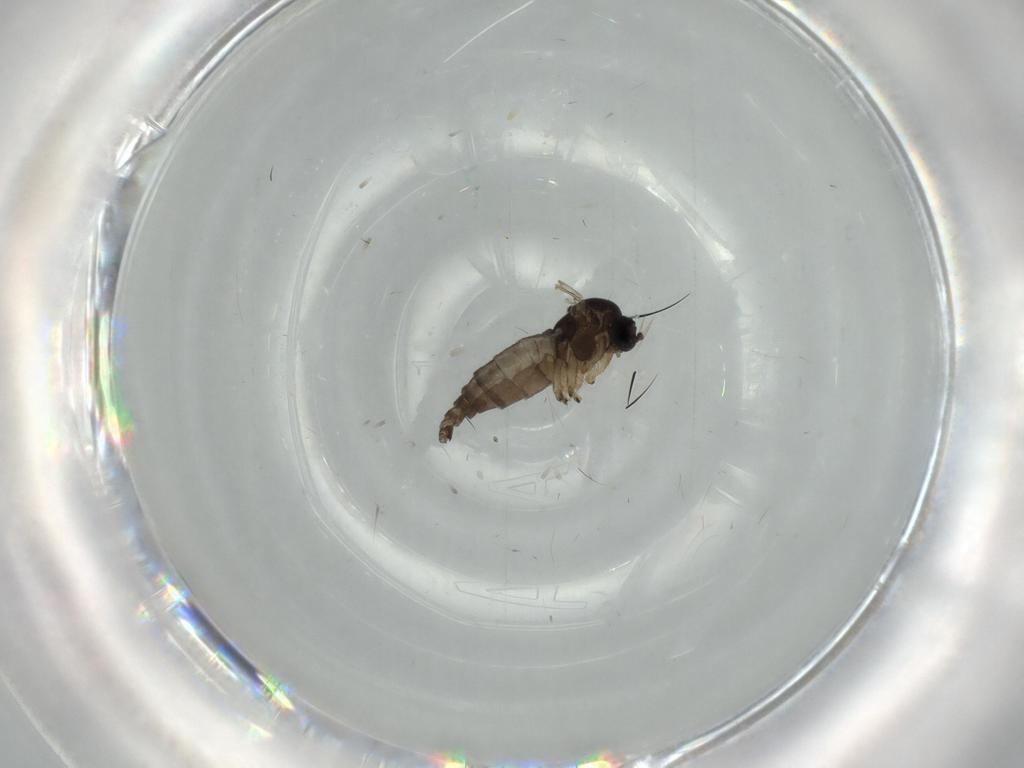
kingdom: Animalia
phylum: Arthropoda
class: Insecta
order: Diptera
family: Sciaridae
